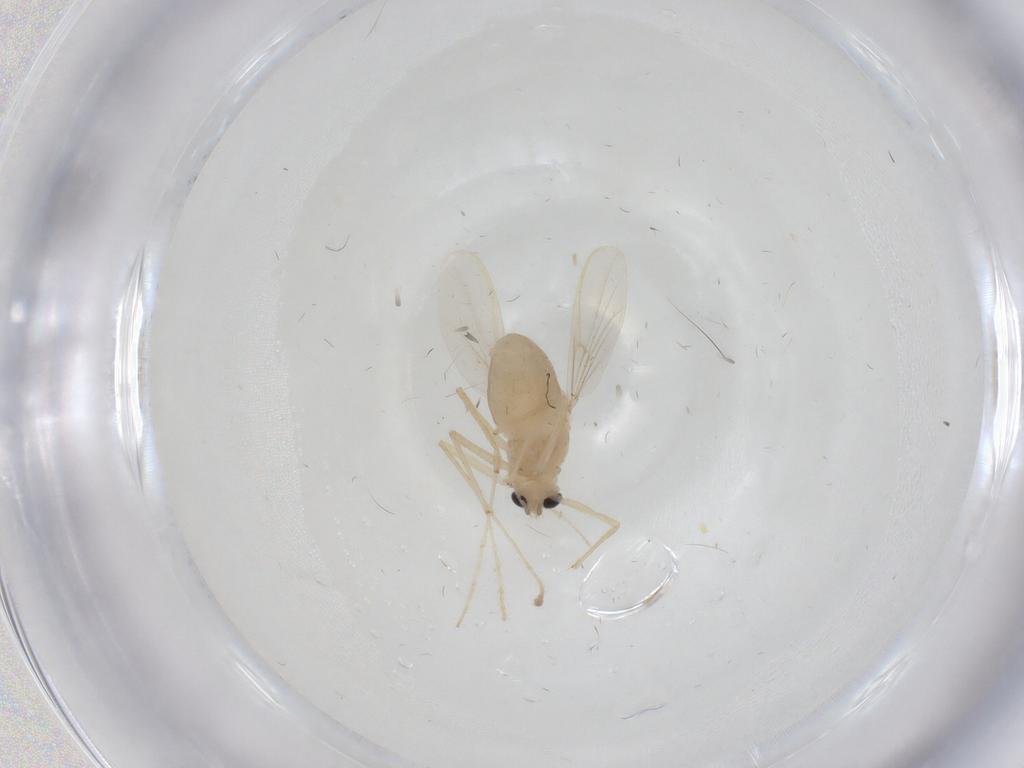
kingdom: Animalia
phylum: Arthropoda
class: Insecta
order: Diptera
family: Chironomidae
